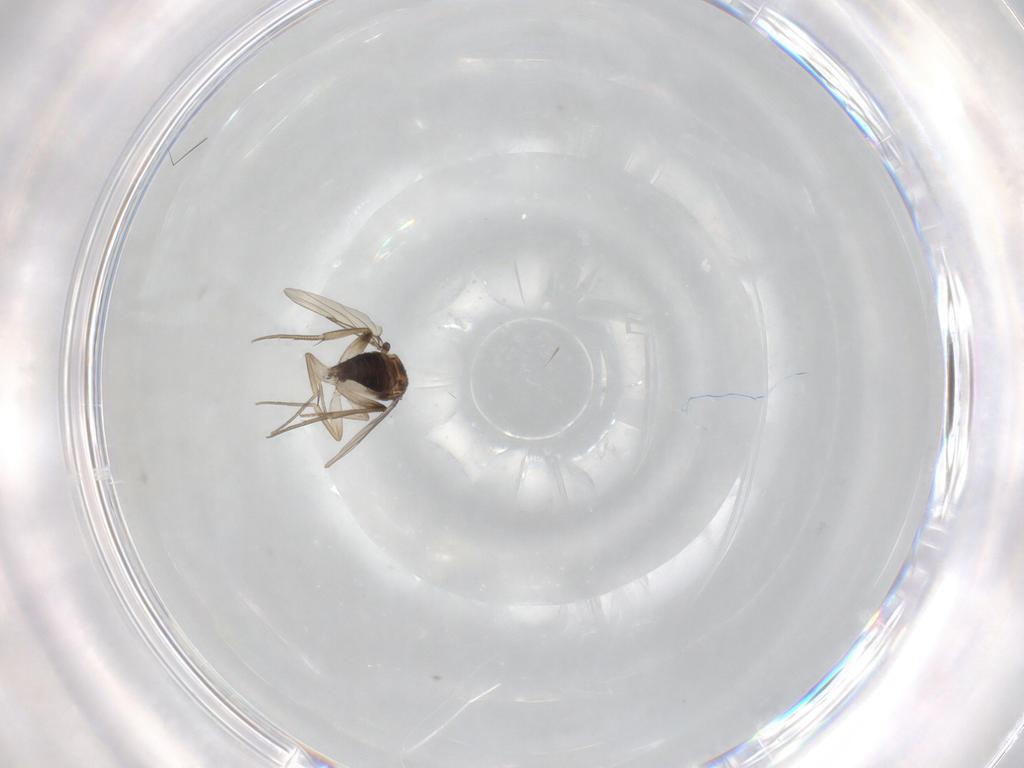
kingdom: Animalia
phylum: Arthropoda
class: Insecta
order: Diptera
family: Phoridae
